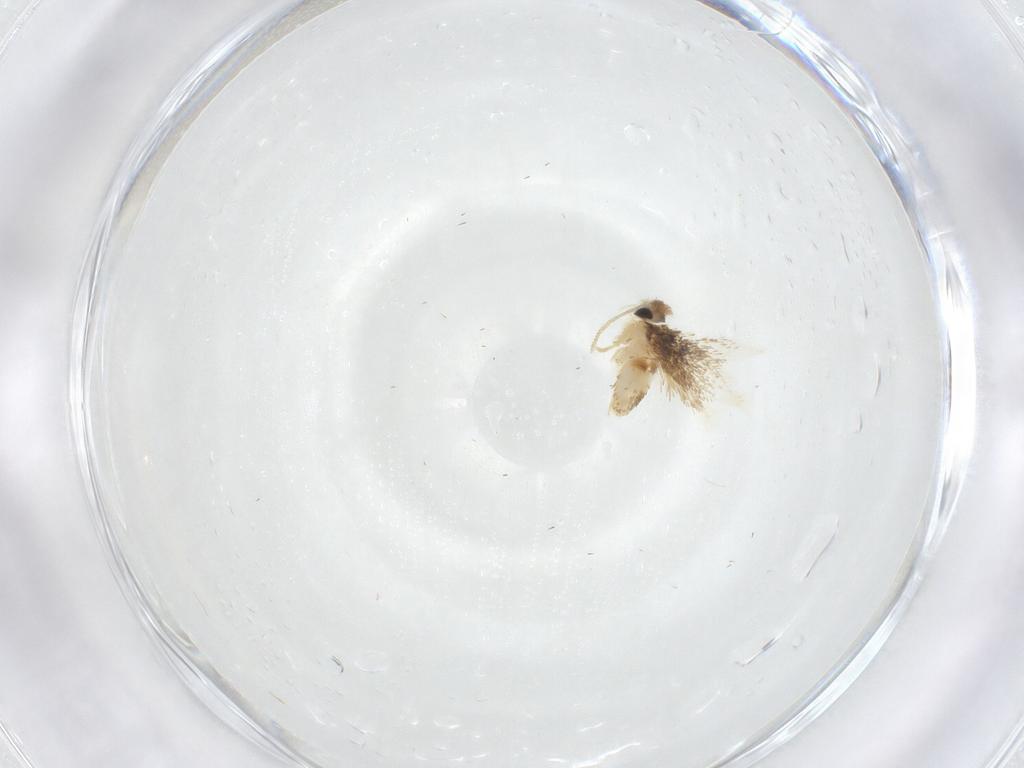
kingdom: Animalia
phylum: Arthropoda
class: Insecta
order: Lepidoptera
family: Nepticulidae
